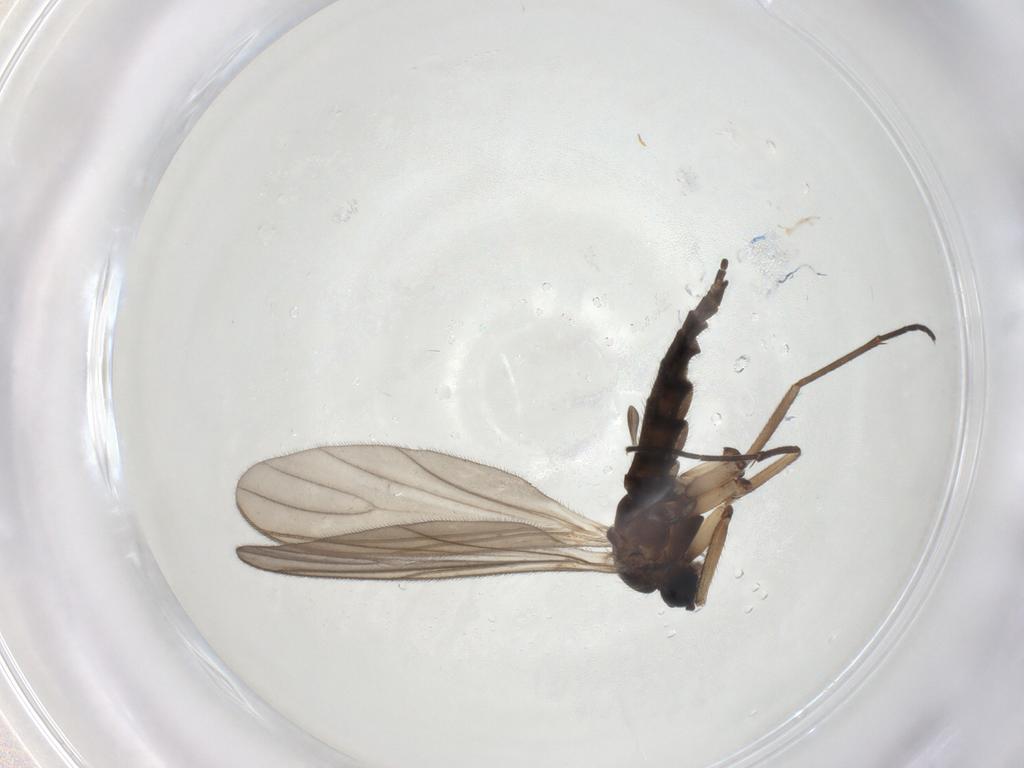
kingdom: Animalia
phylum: Arthropoda
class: Insecta
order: Diptera
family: Sciaridae
